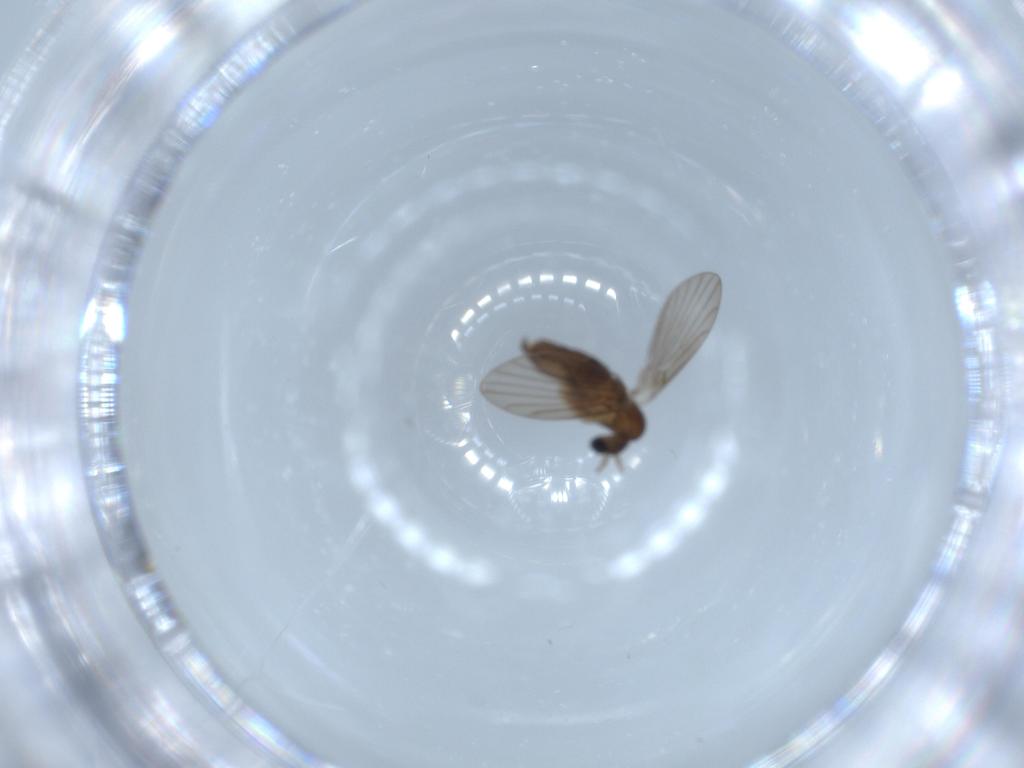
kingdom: Animalia
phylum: Arthropoda
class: Insecta
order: Diptera
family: Psychodidae
